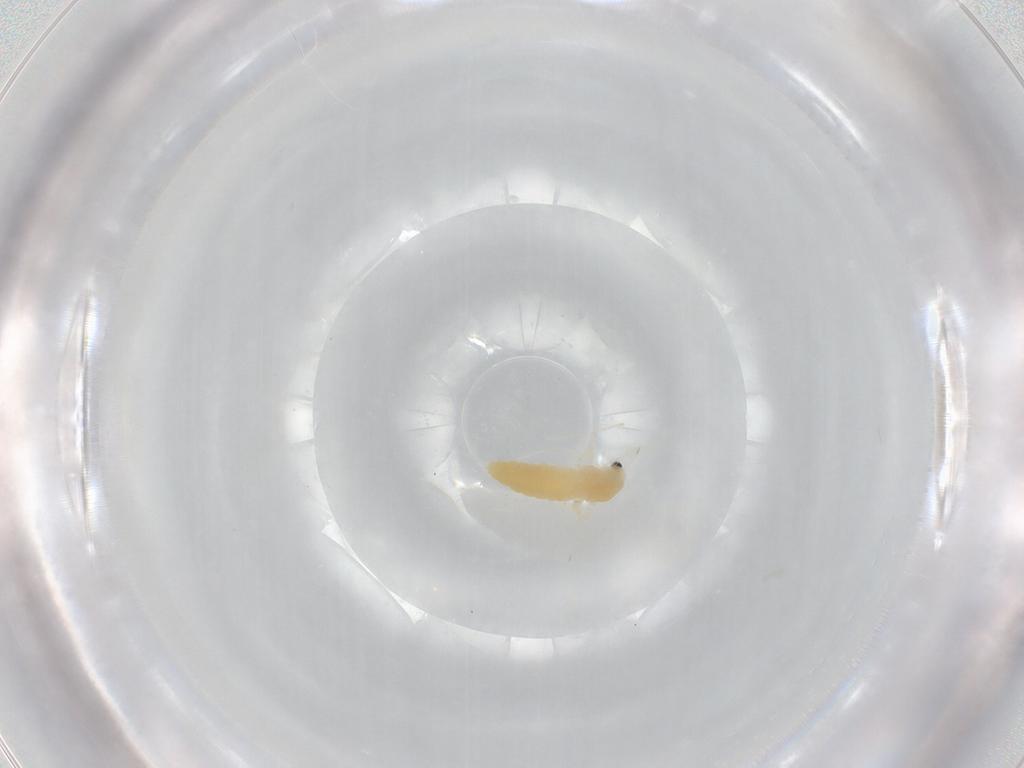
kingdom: Animalia
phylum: Arthropoda
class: Insecta
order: Diptera
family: Chironomidae
